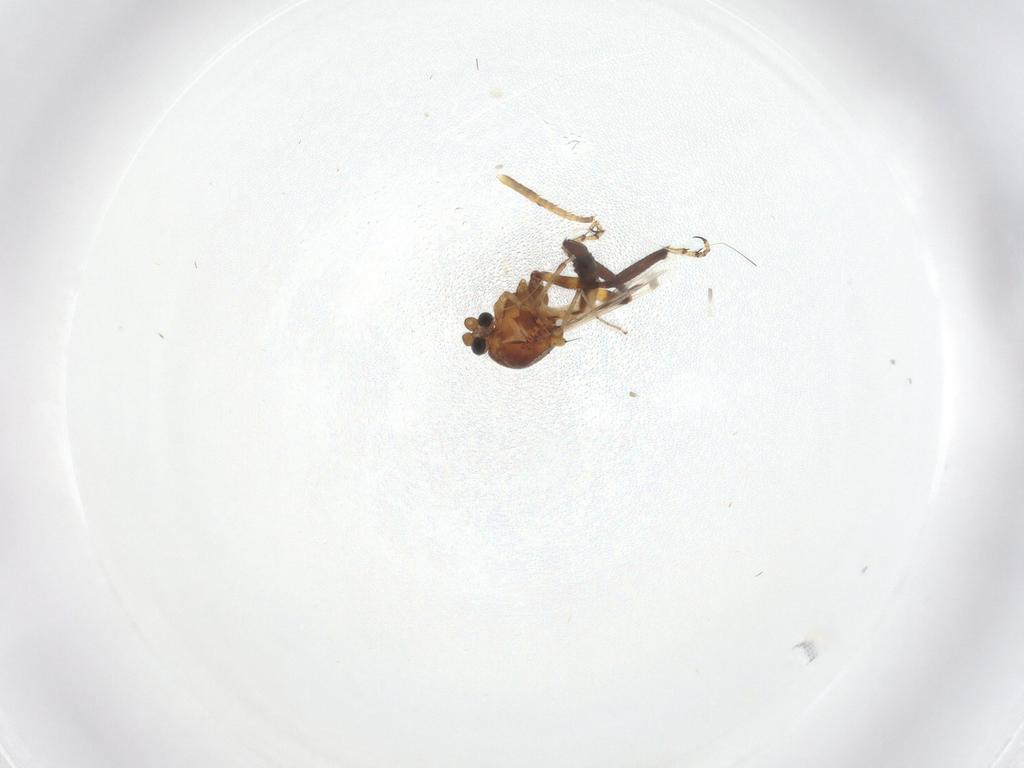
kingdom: Animalia
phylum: Arthropoda
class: Insecta
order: Diptera
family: Ceratopogonidae
